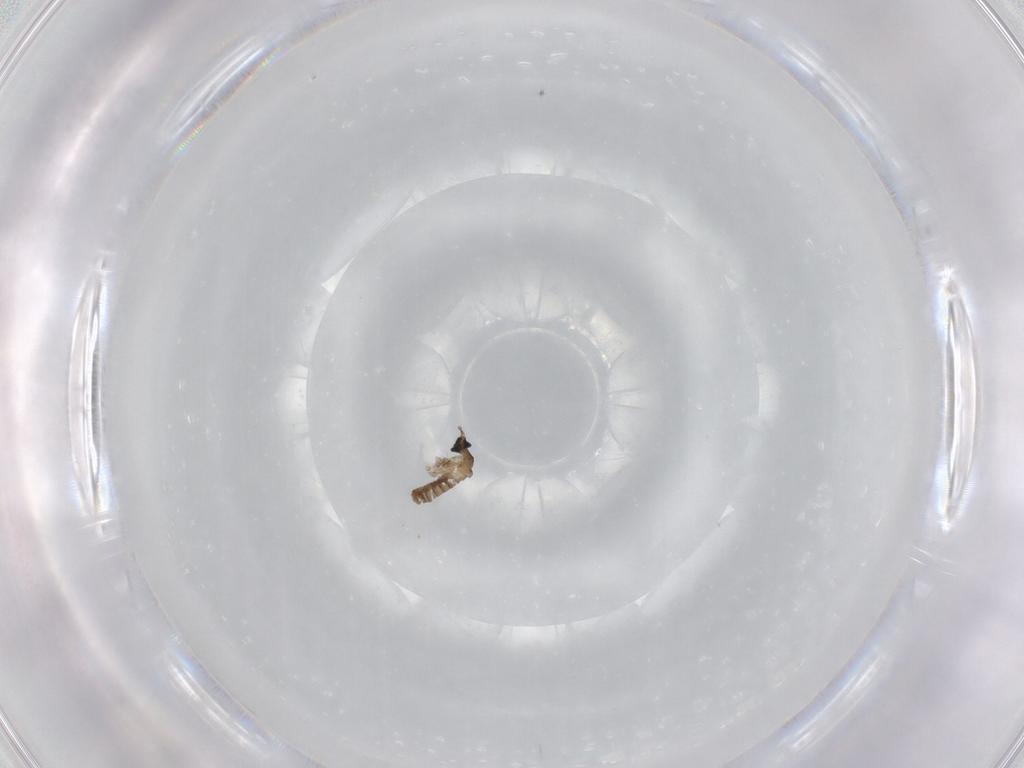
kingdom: Animalia
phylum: Arthropoda
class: Insecta
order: Diptera
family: Cecidomyiidae
